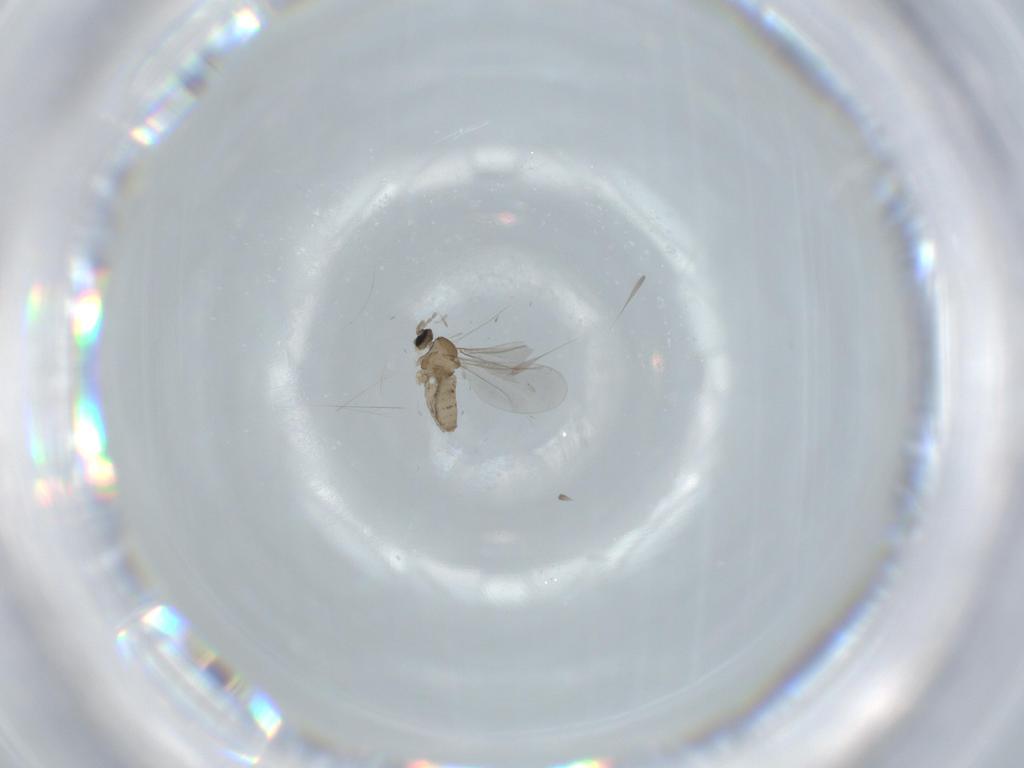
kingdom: Animalia
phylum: Arthropoda
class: Insecta
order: Diptera
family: Cecidomyiidae
